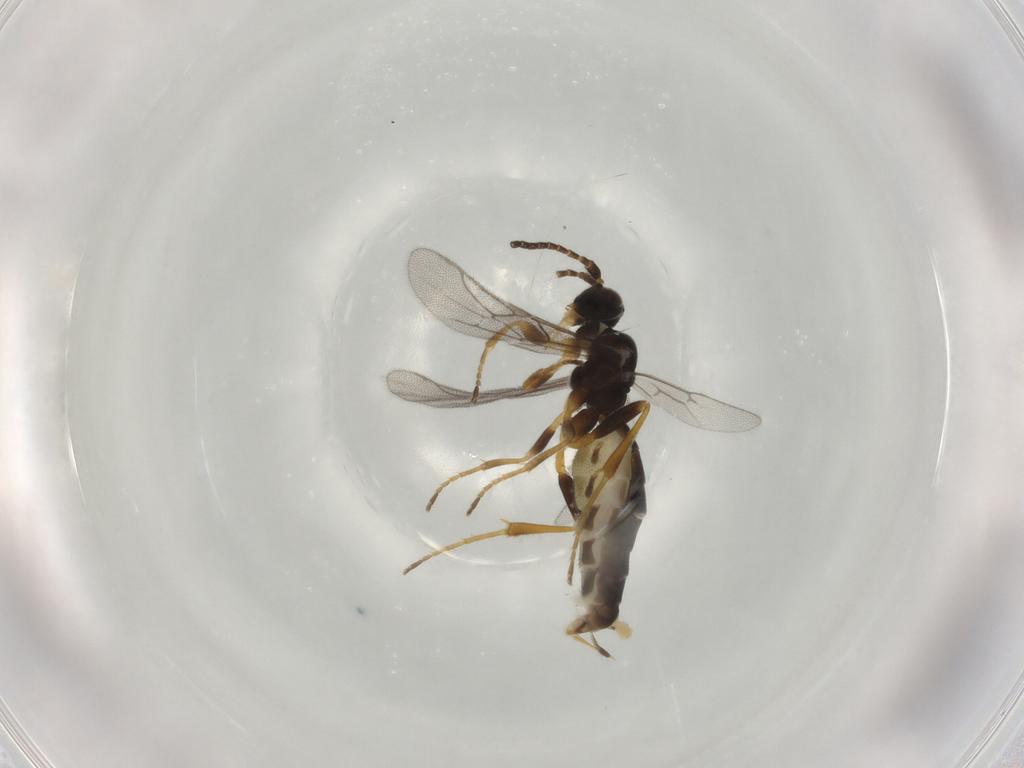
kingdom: Animalia
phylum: Arthropoda
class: Insecta
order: Hymenoptera
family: Ichneumonidae
